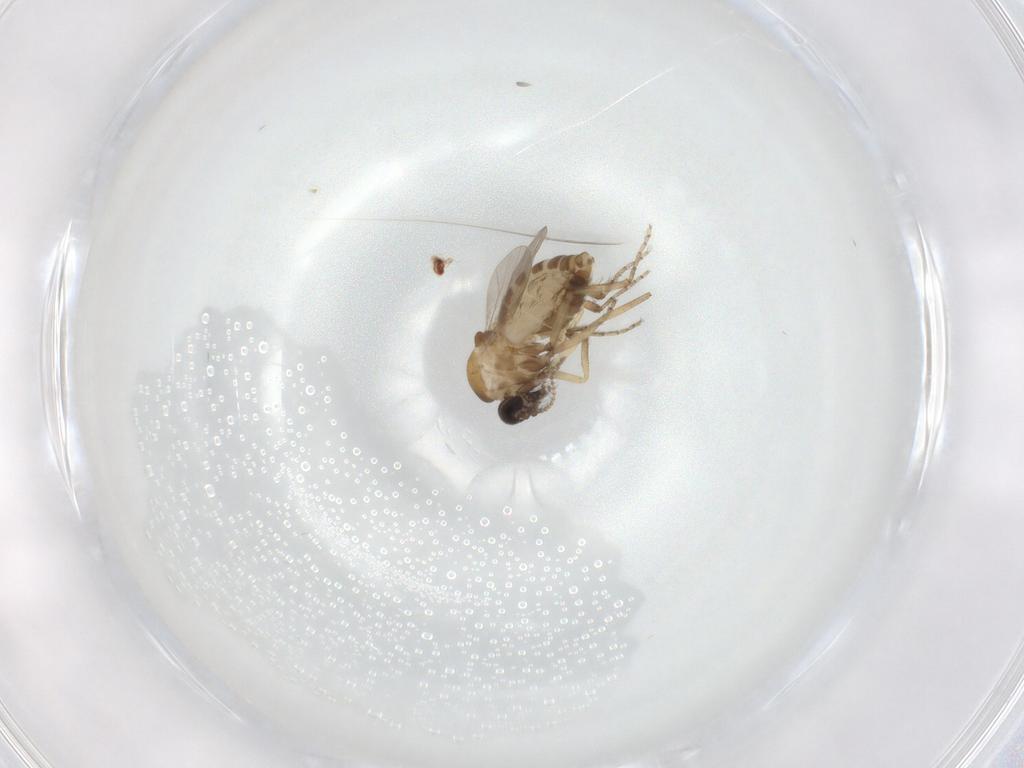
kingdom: Animalia
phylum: Arthropoda
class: Insecta
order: Diptera
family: Ceratopogonidae
